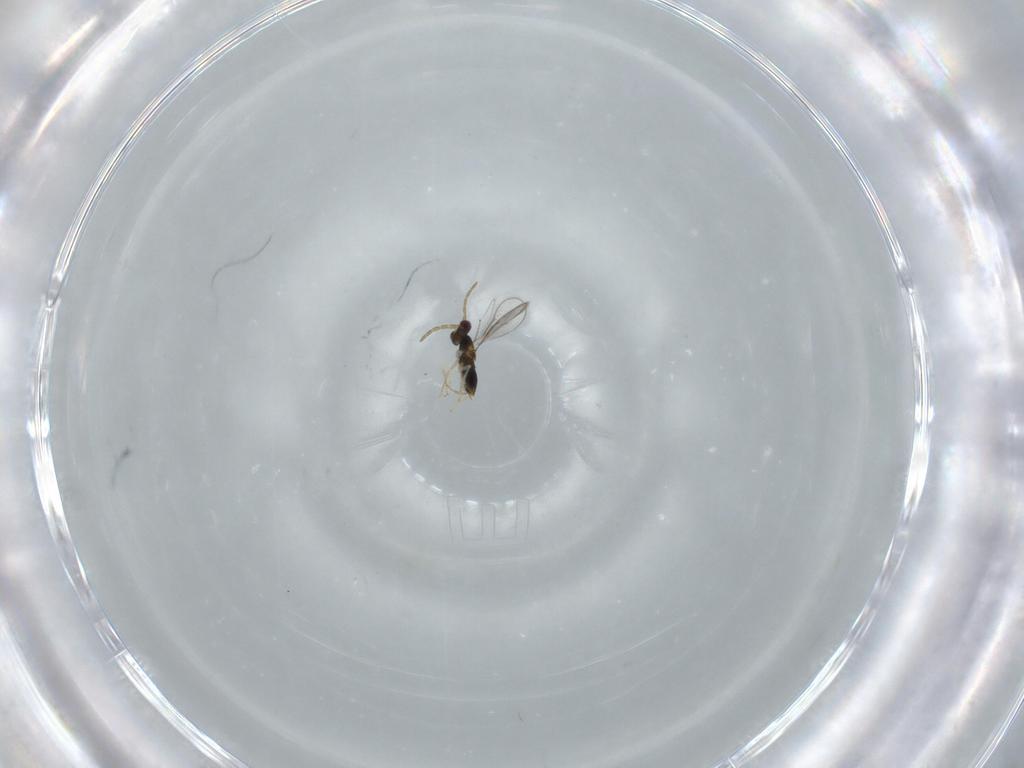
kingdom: Animalia
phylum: Arthropoda
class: Insecta
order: Hymenoptera
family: Aphelinidae
